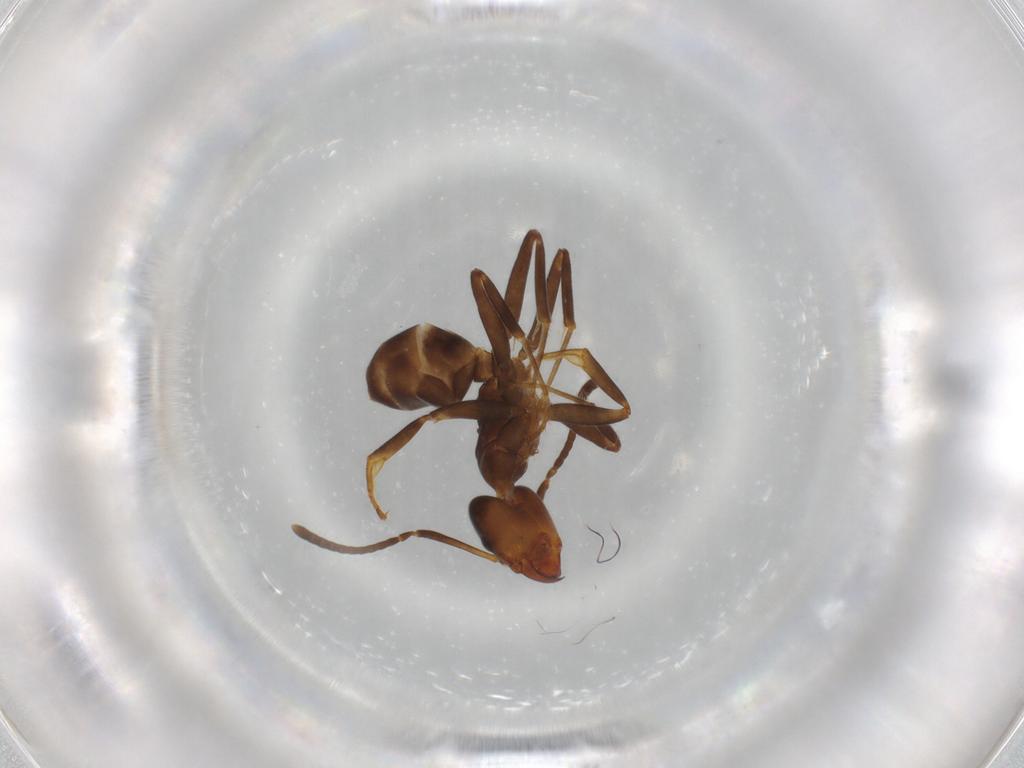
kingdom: Animalia
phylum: Arthropoda
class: Insecta
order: Hymenoptera
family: Formicidae
